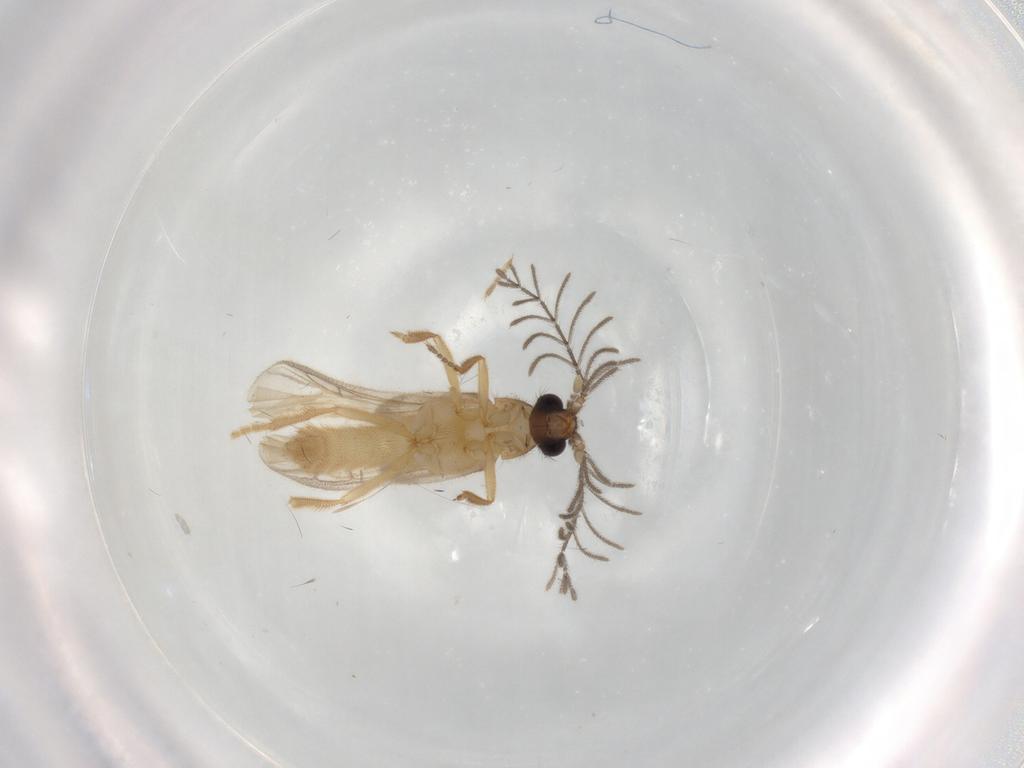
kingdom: Animalia
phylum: Arthropoda
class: Insecta
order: Coleoptera
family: Phengodidae
